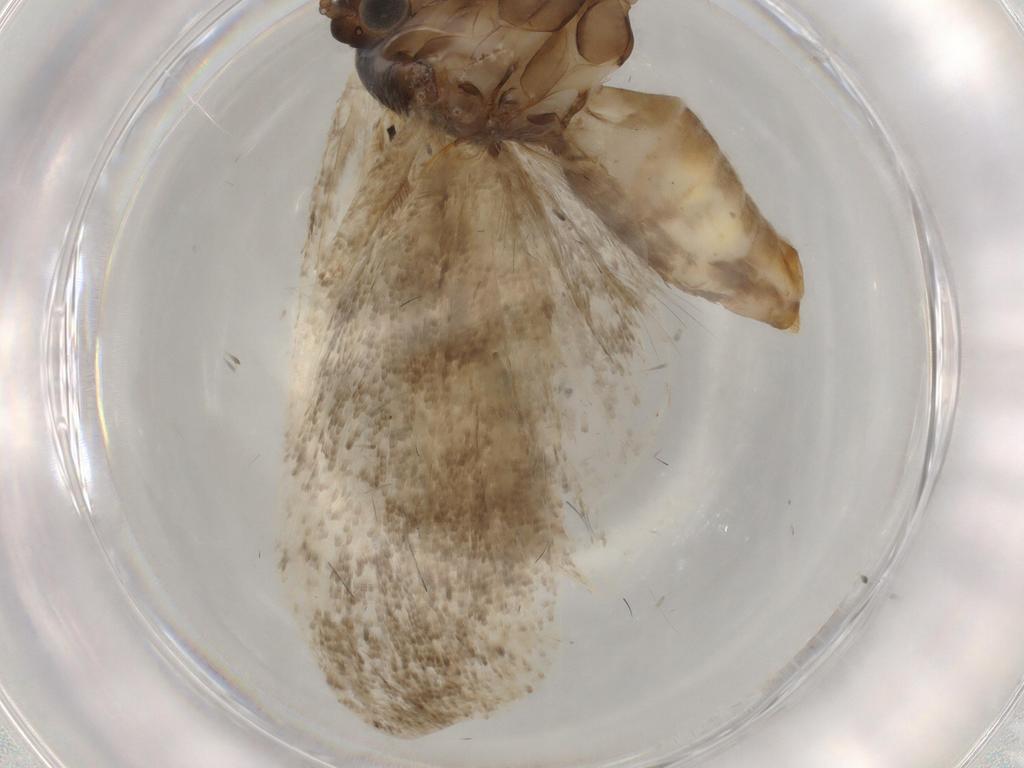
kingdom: Animalia
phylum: Arthropoda
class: Insecta
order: Lepidoptera
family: Tortricidae
